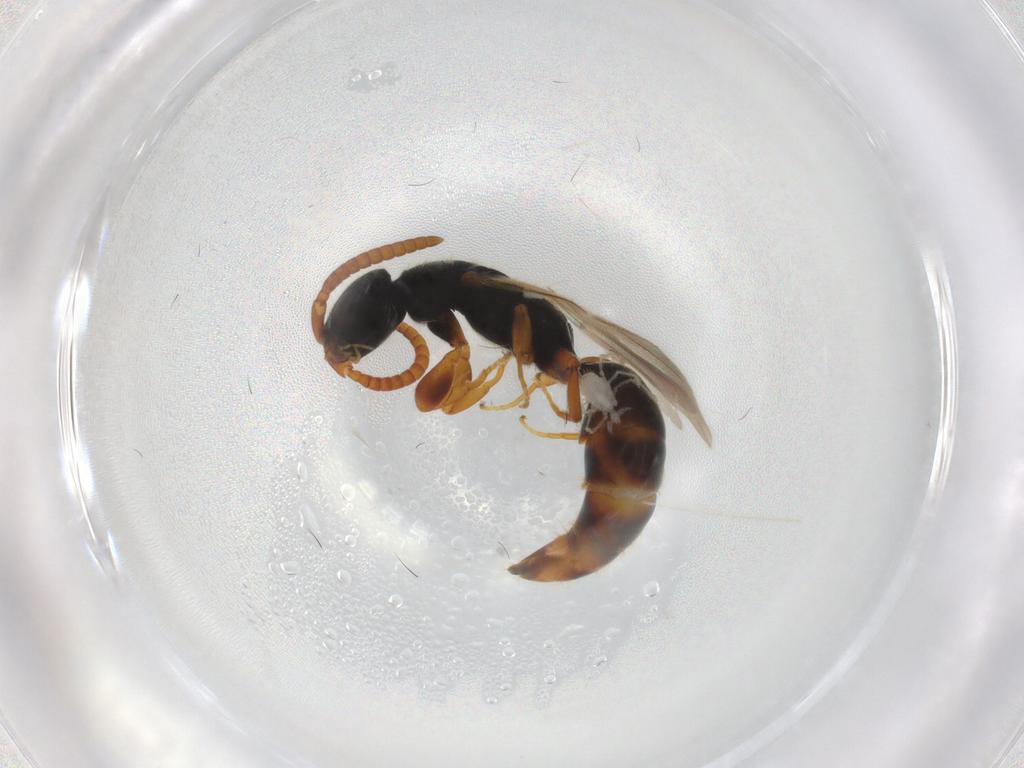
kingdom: Animalia
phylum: Arthropoda
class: Insecta
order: Hymenoptera
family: Bethylidae
